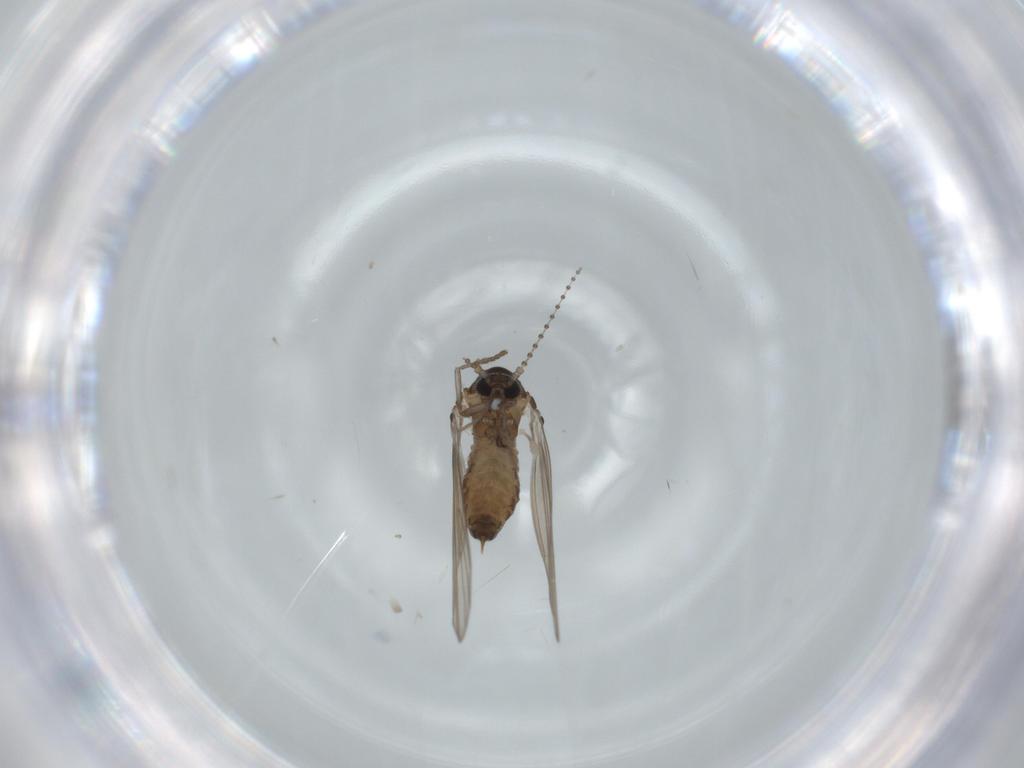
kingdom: Animalia
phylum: Arthropoda
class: Insecta
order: Diptera
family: Psychodidae
